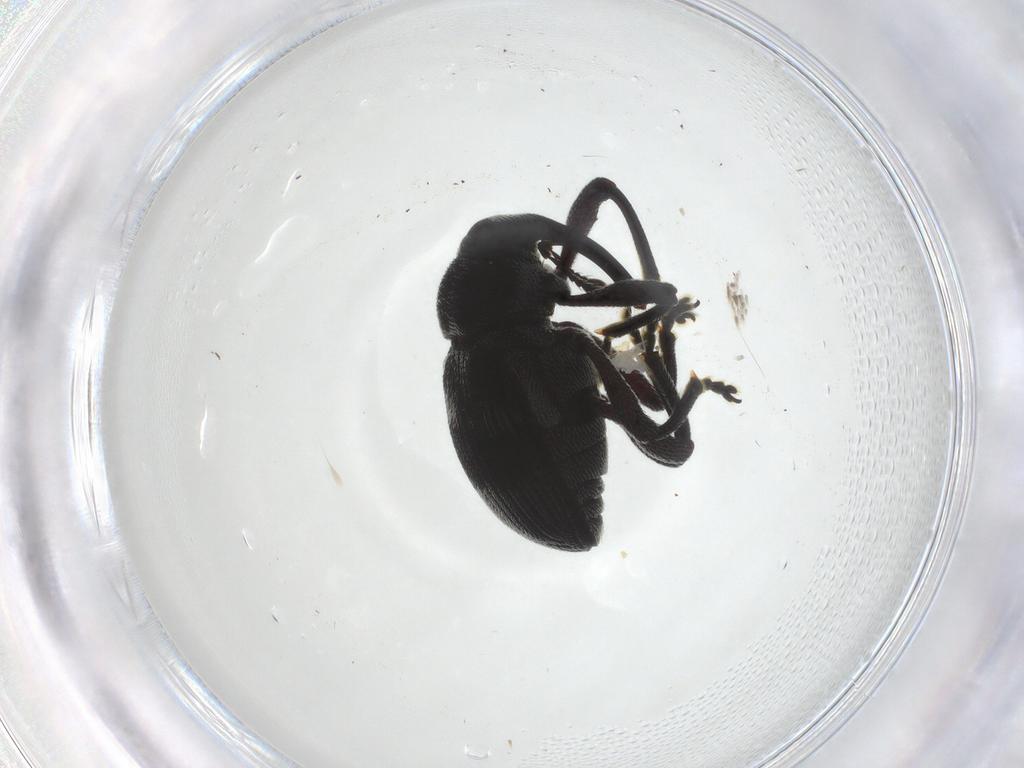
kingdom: Animalia
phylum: Arthropoda
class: Insecta
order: Coleoptera
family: Curculionidae
